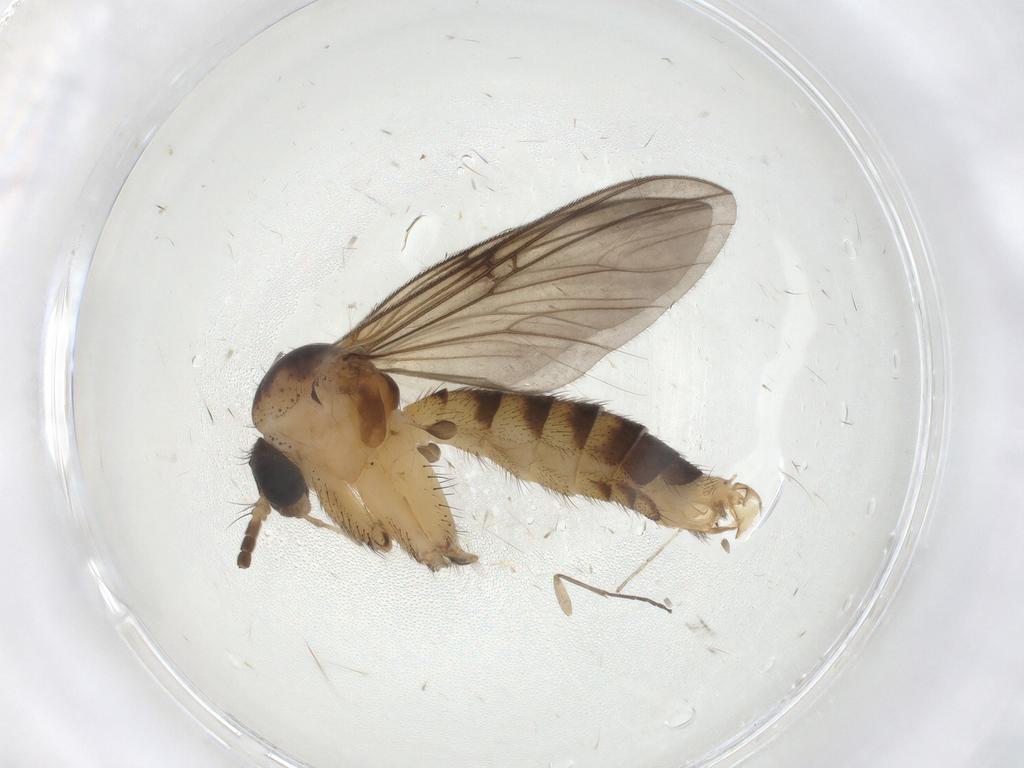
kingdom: Animalia
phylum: Arthropoda
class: Insecta
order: Diptera
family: Cecidomyiidae
